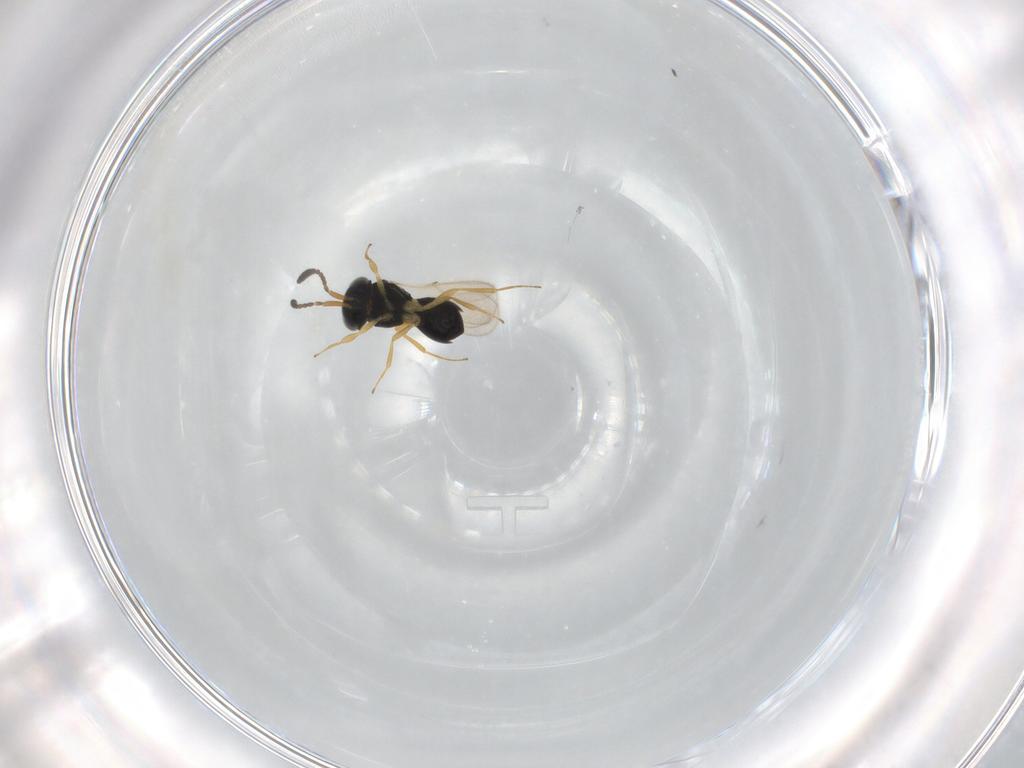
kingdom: Animalia
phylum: Arthropoda
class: Insecta
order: Hymenoptera
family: Scelionidae
